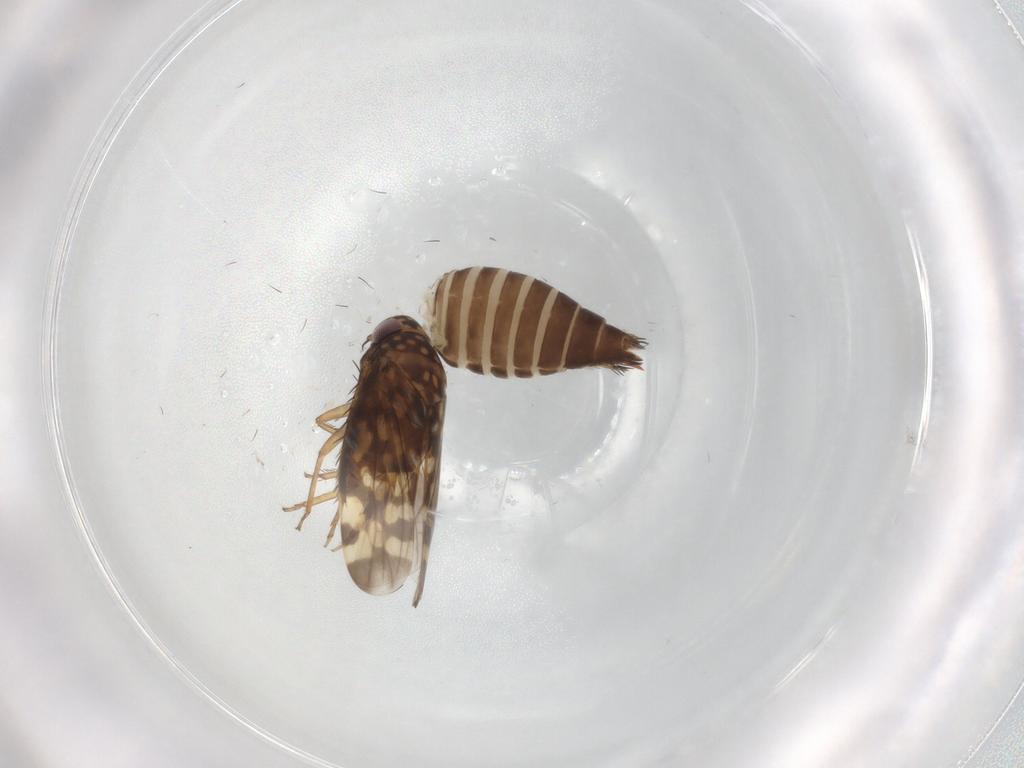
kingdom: Animalia
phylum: Arthropoda
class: Insecta
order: Hemiptera
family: Cicadellidae
